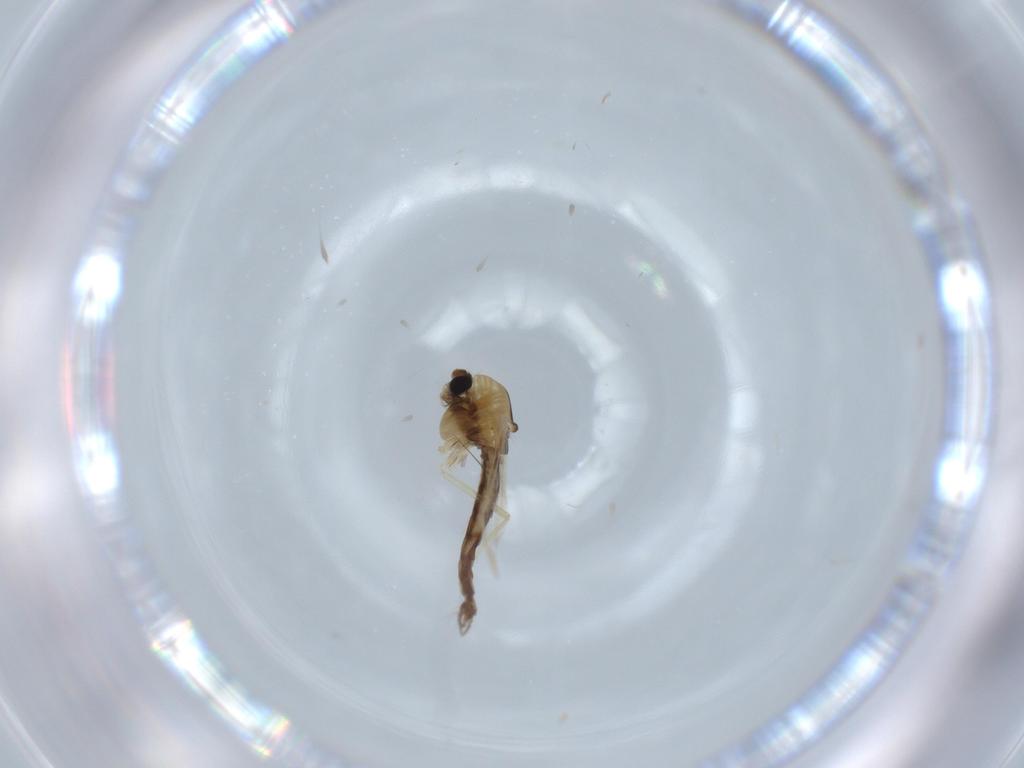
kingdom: Animalia
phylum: Arthropoda
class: Insecta
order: Diptera
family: Chironomidae
